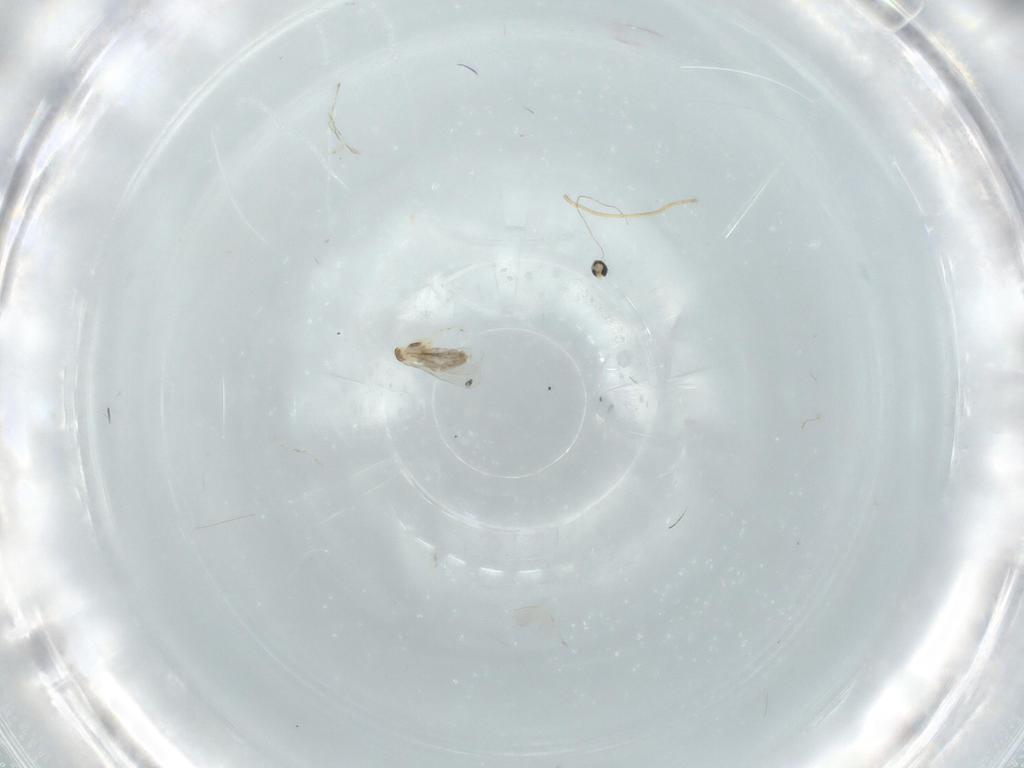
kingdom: Animalia
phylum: Arthropoda
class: Insecta
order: Diptera
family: Cecidomyiidae
